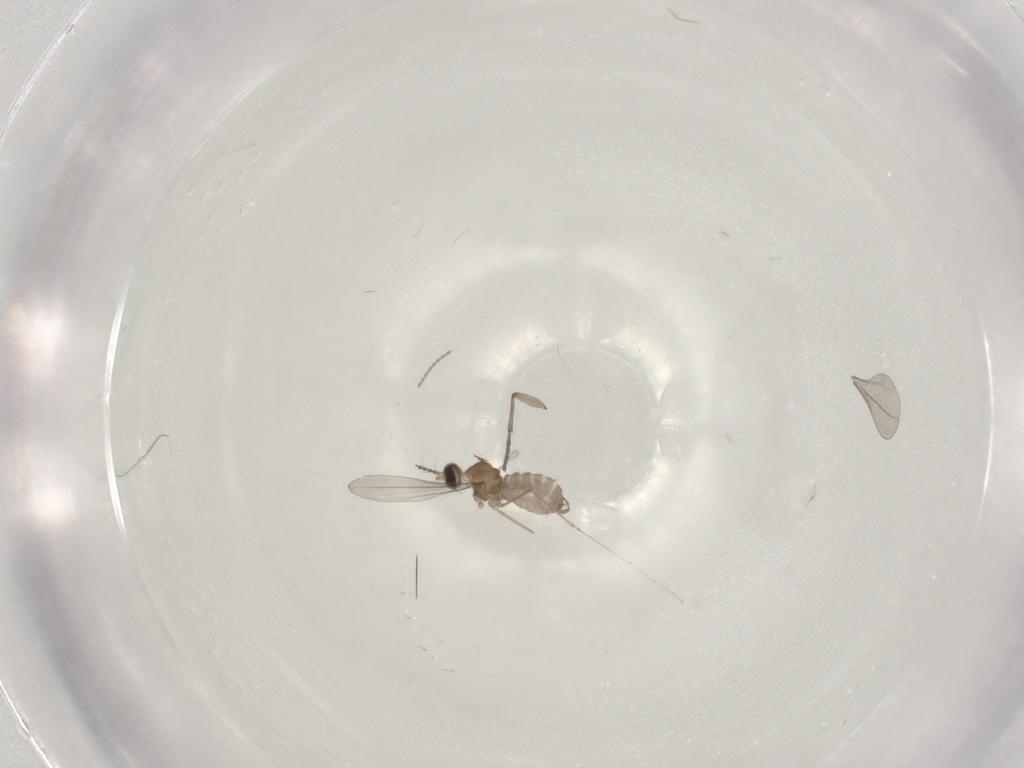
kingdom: Animalia
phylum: Arthropoda
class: Insecta
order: Diptera
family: Sciaridae
